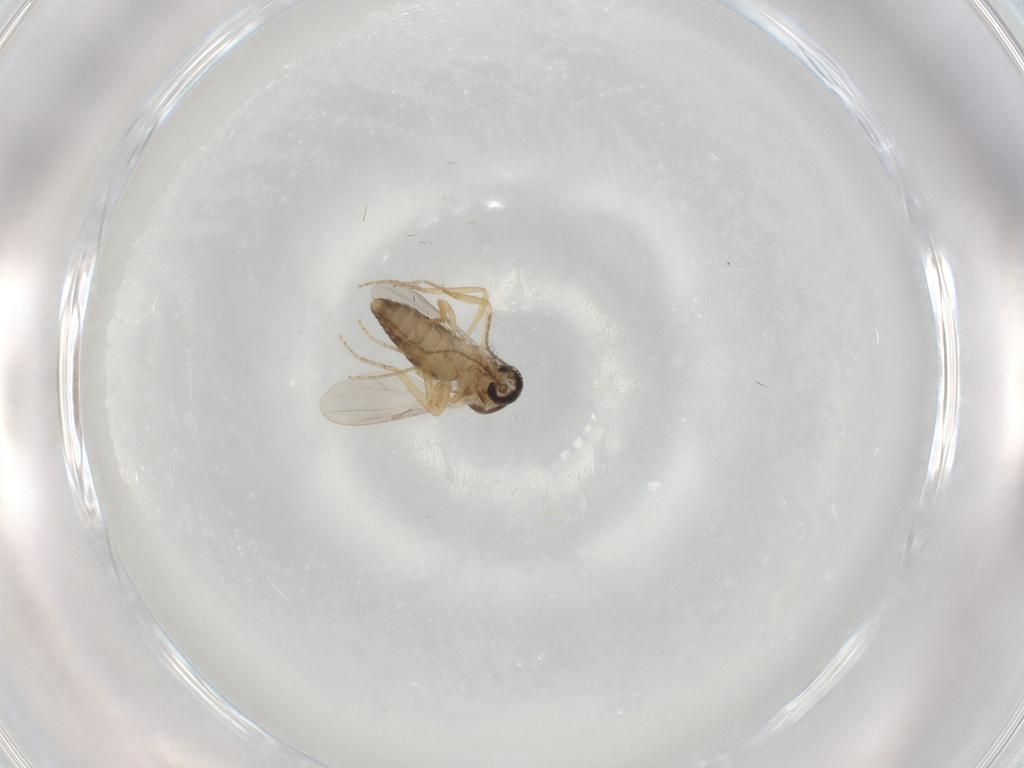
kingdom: Animalia
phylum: Arthropoda
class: Insecta
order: Diptera
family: Ceratopogonidae
